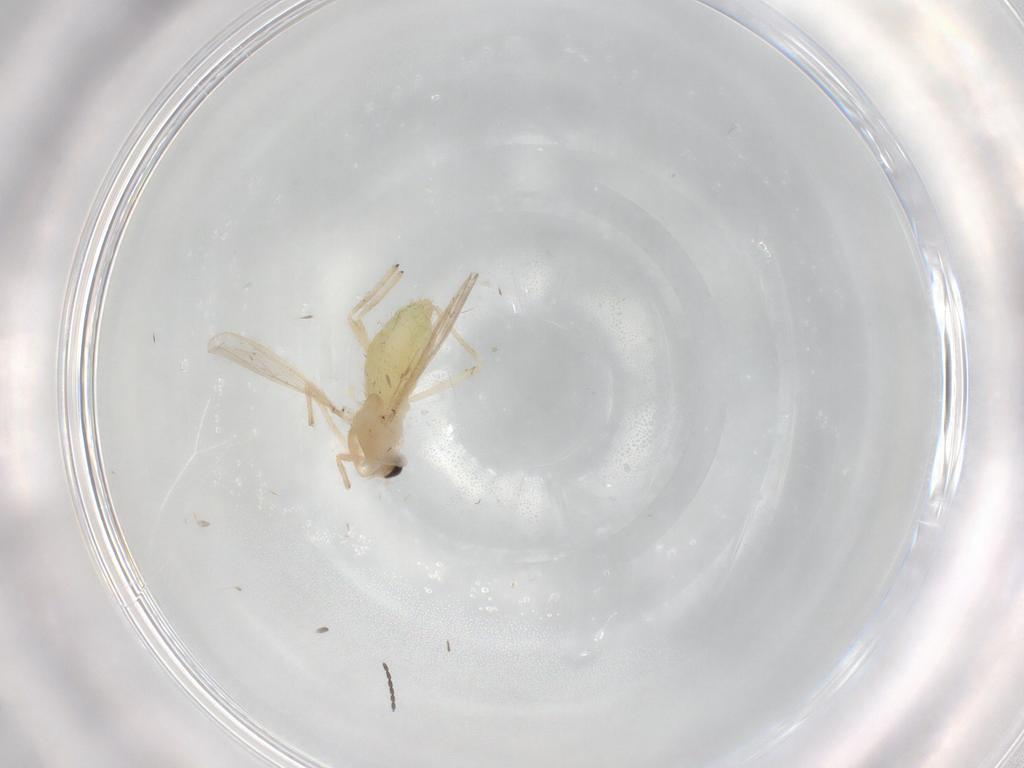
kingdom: Animalia
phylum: Arthropoda
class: Insecta
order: Diptera
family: Chironomidae
